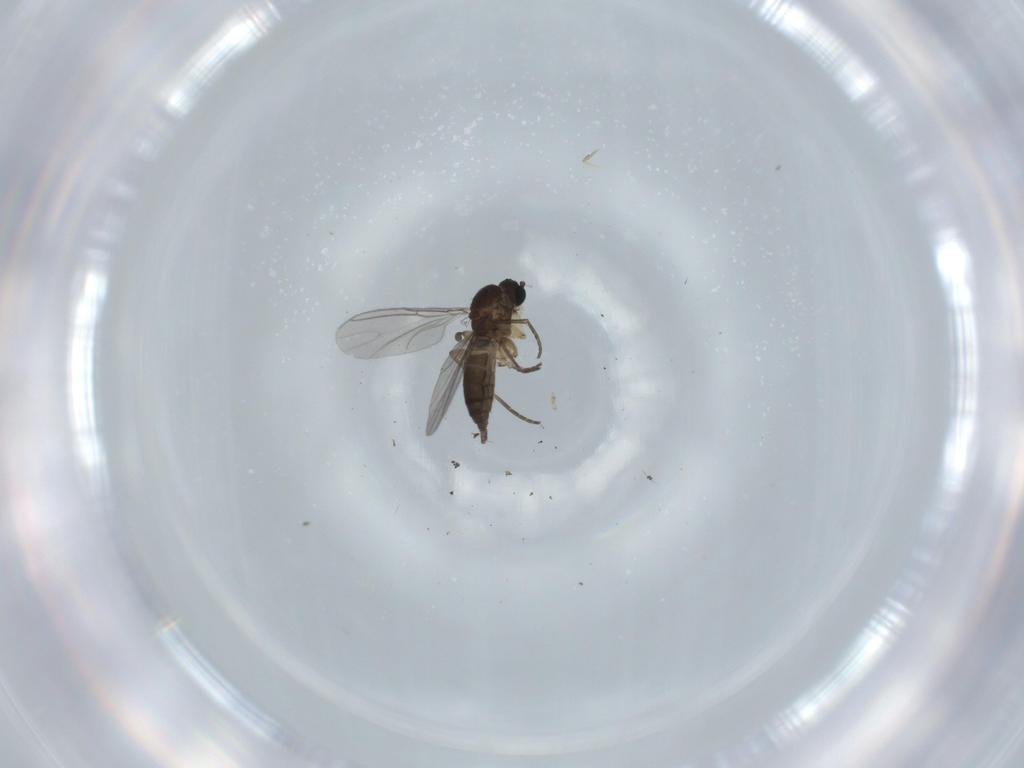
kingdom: Animalia
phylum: Arthropoda
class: Insecta
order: Diptera
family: Sciaridae
